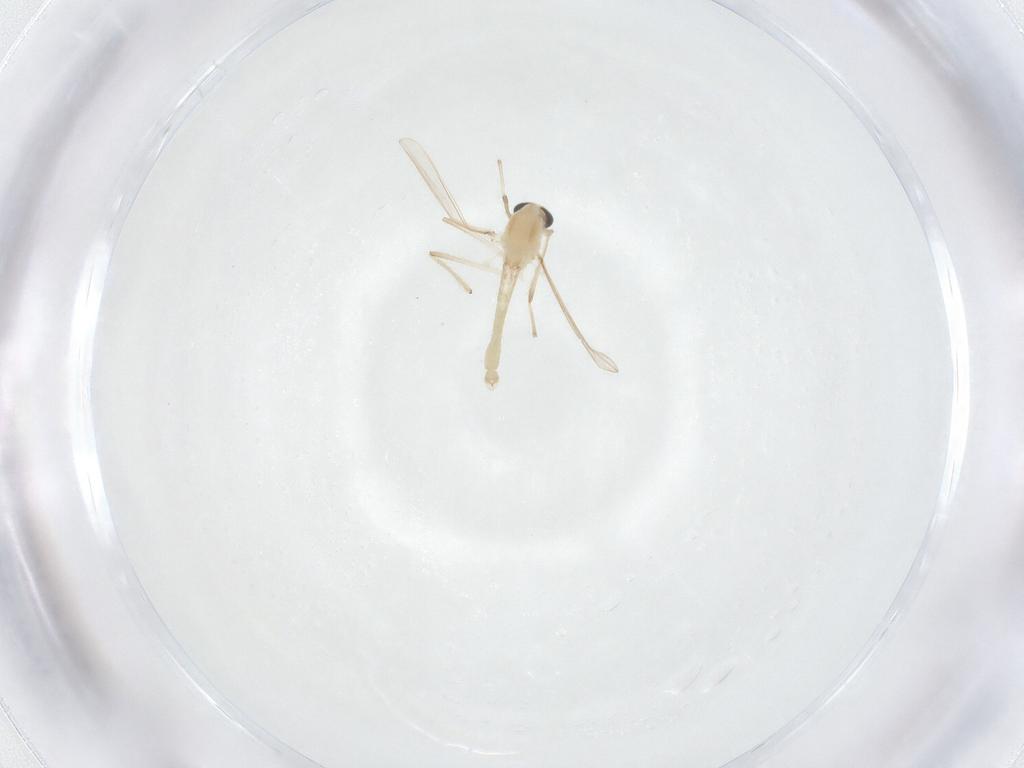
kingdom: Animalia
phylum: Arthropoda
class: Insecta
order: Diptera
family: Chironomidae
